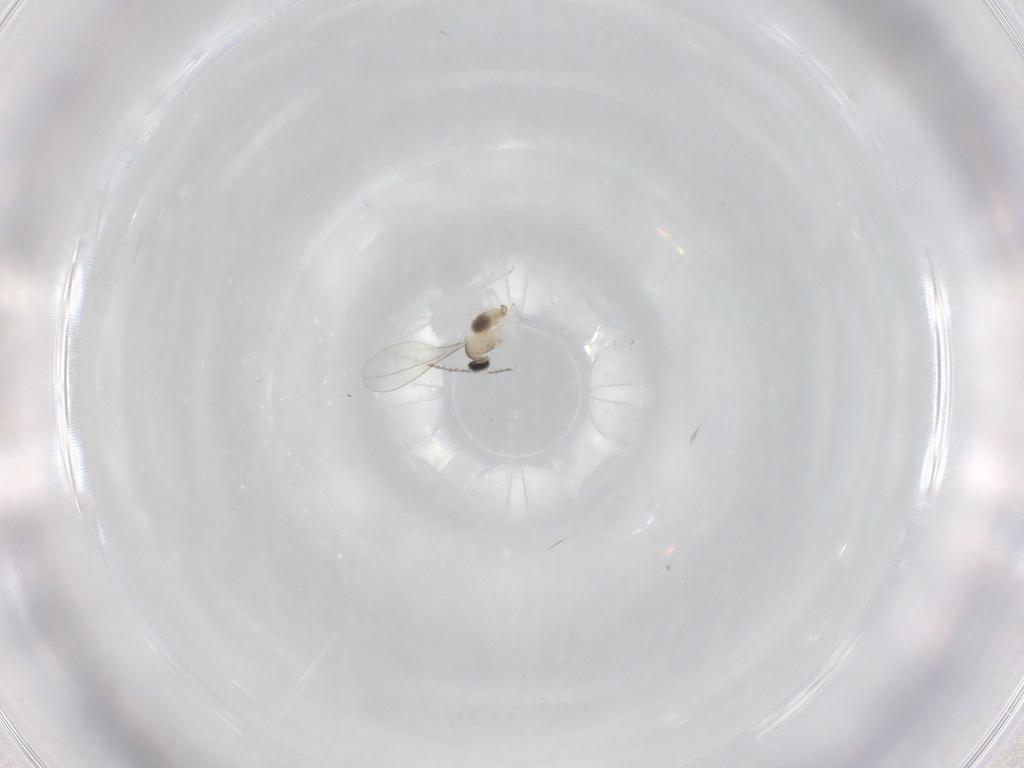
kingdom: Animalia
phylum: Arthropoda
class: Insecta
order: Diptera
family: Cecidomyiidae
